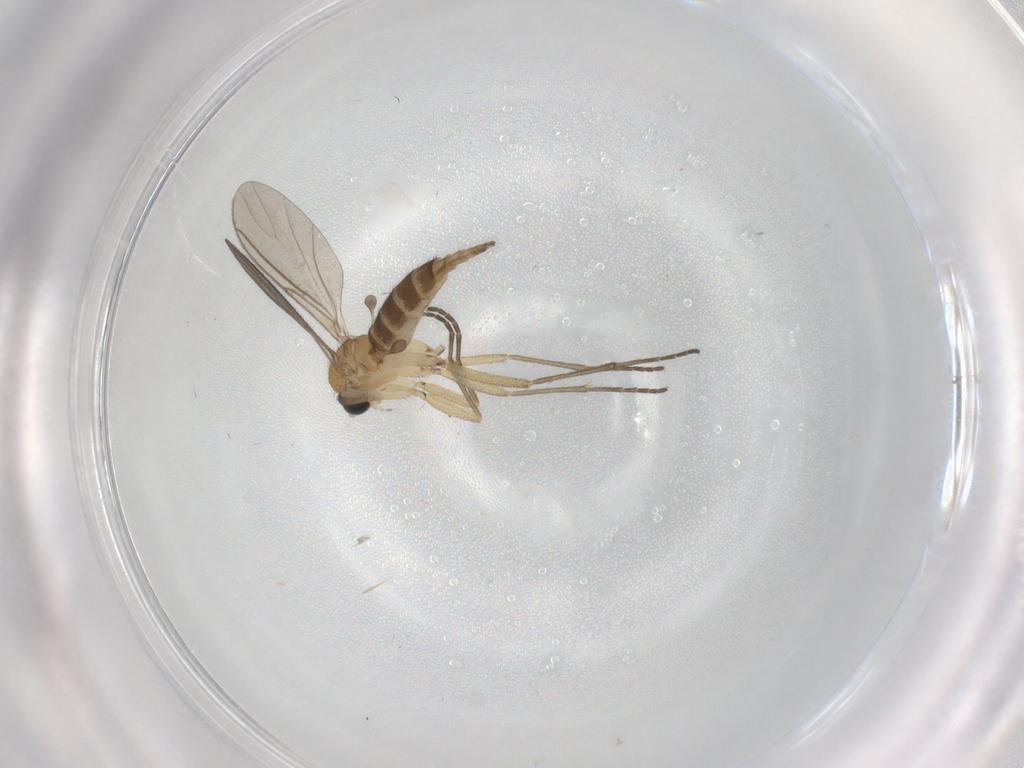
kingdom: Animalia
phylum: Arthropoda
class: Insecta
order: Diptera
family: Sciaridae
